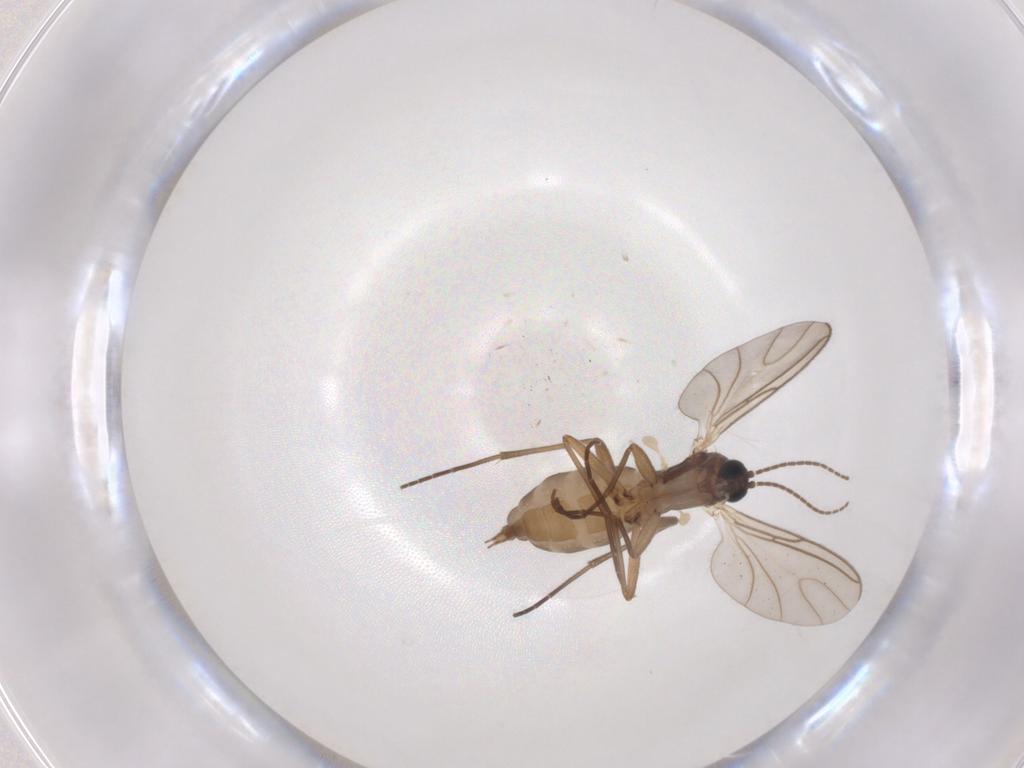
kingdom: Animalia
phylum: Arthropoda
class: Insecta
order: Diptera
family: Sciaridae
